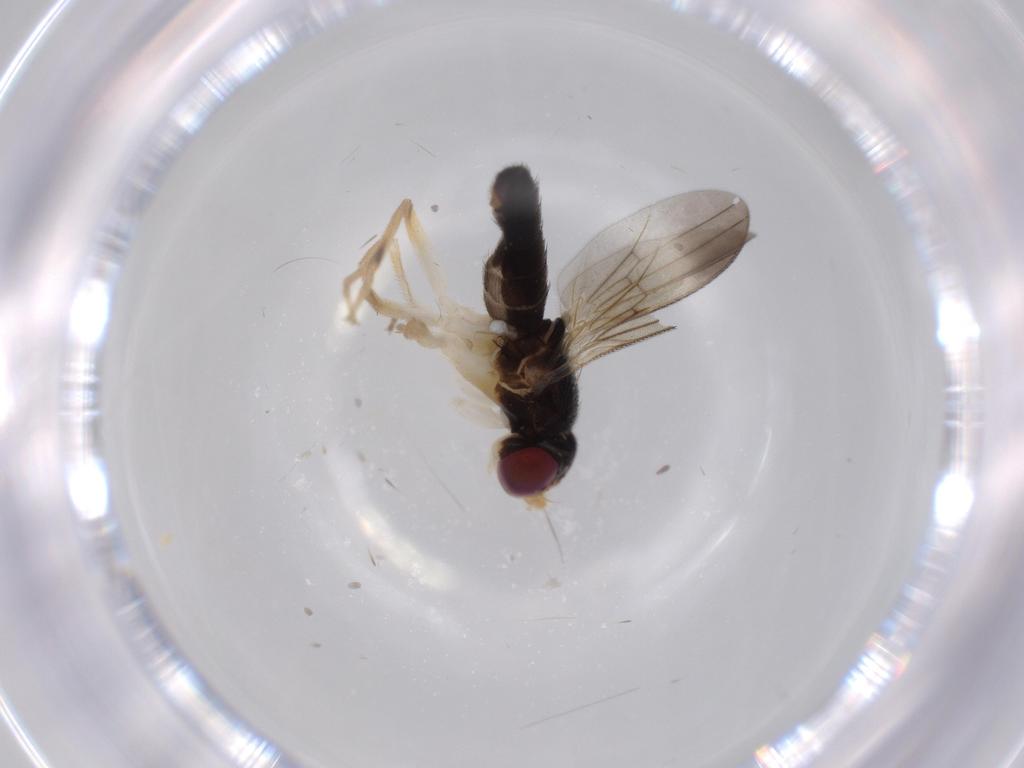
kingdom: Animalia
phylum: Arthropoda
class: Insecta
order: Diptera
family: Clusiidae
